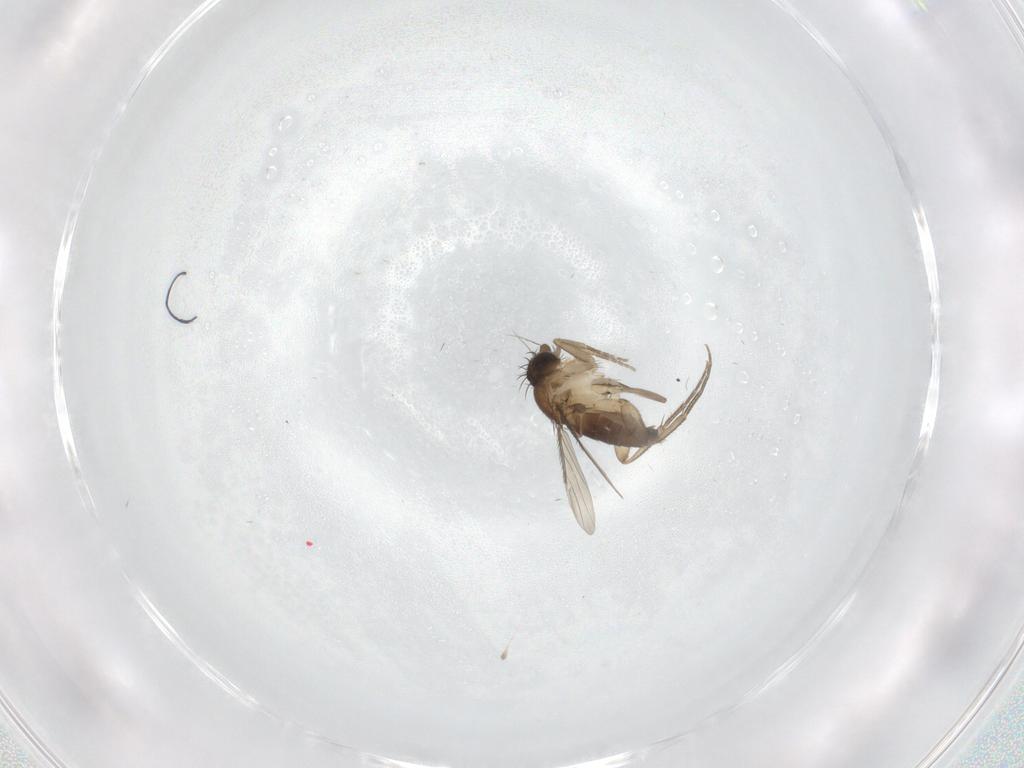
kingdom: Animalia
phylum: Arthropoda
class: Insecta
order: Diptera
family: Phoridae
